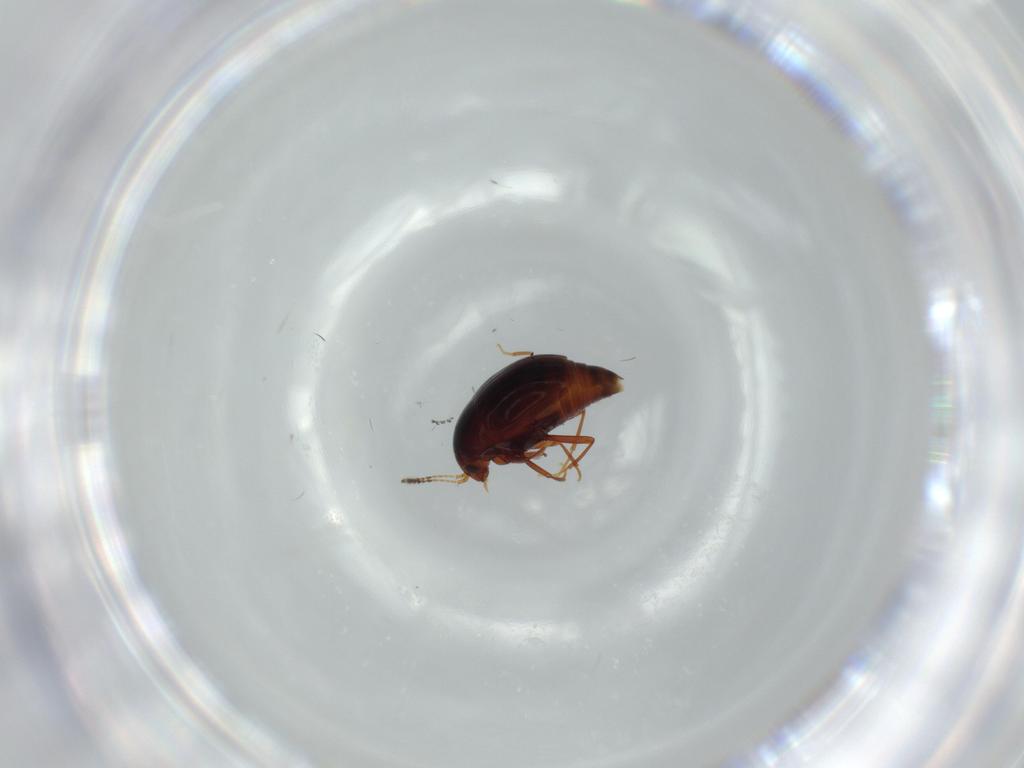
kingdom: Animalia
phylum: Arthropoda
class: Insecta
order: Coleoptera
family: Staphylinidae
